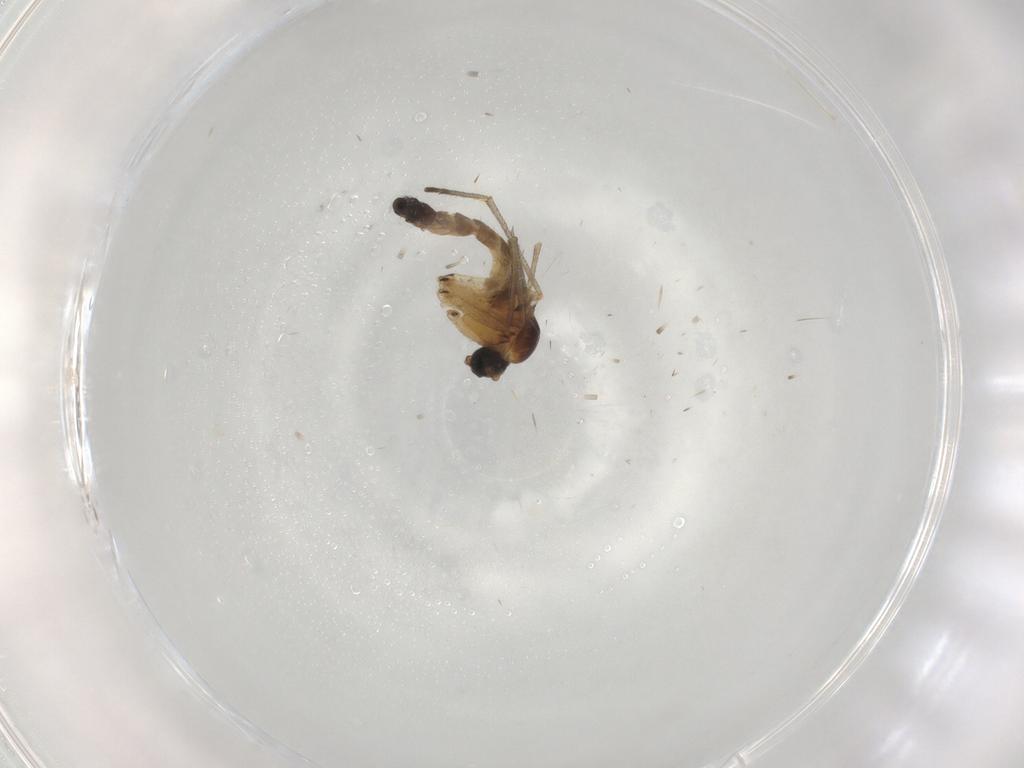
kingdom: Animalia
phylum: Arthropoda
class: Insecta
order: Diptera
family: Sciaridae
